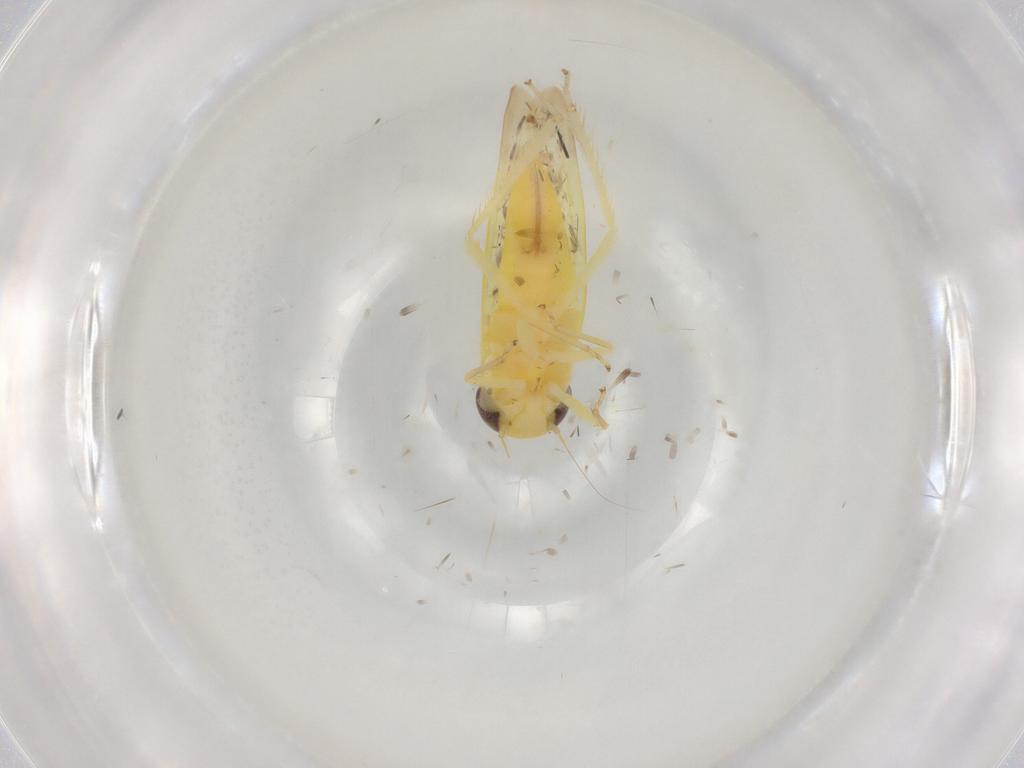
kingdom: Animalia
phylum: Arthropoda
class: Insecta
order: Hemiptera
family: Cicadellidae
